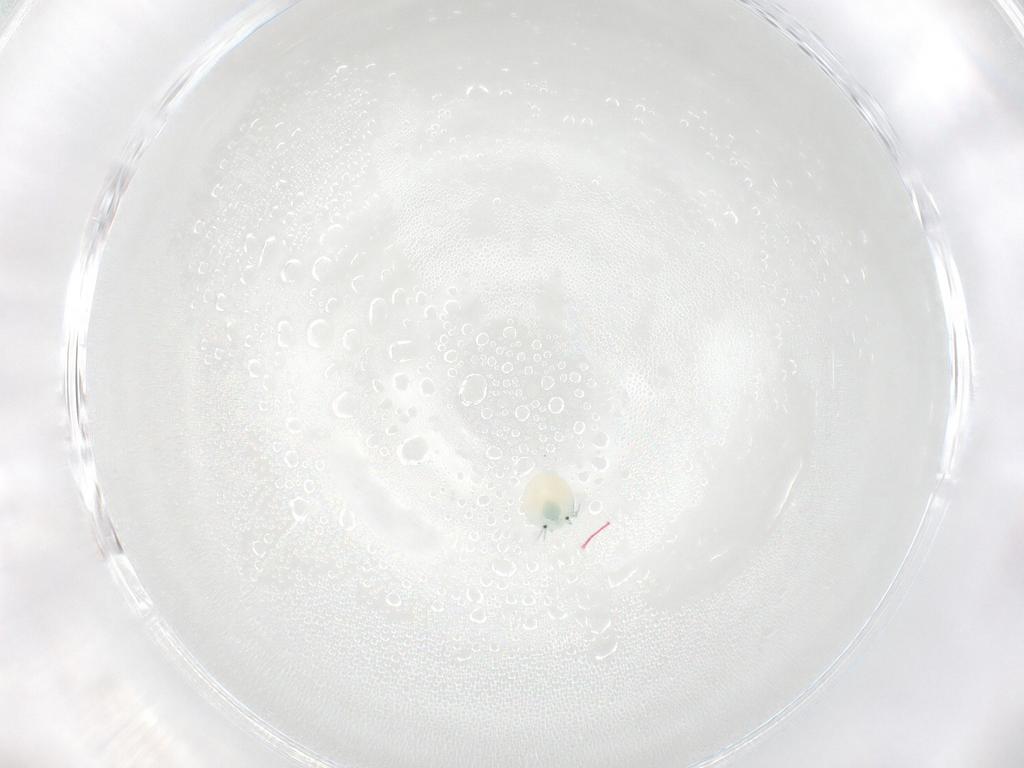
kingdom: Animalia
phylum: Arthropoda
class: Arachnida
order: Trombidiformes
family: Arrenuridae
